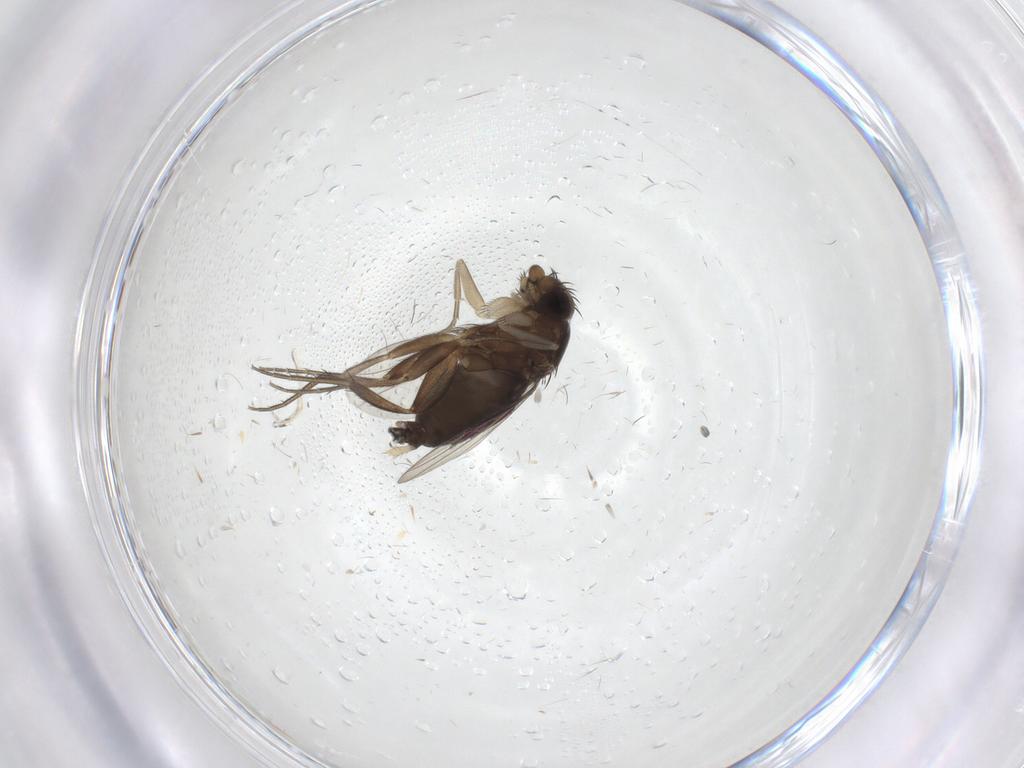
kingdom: Animalia
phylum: Arthropoda
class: Insecta
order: Diptera
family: Phoridae
